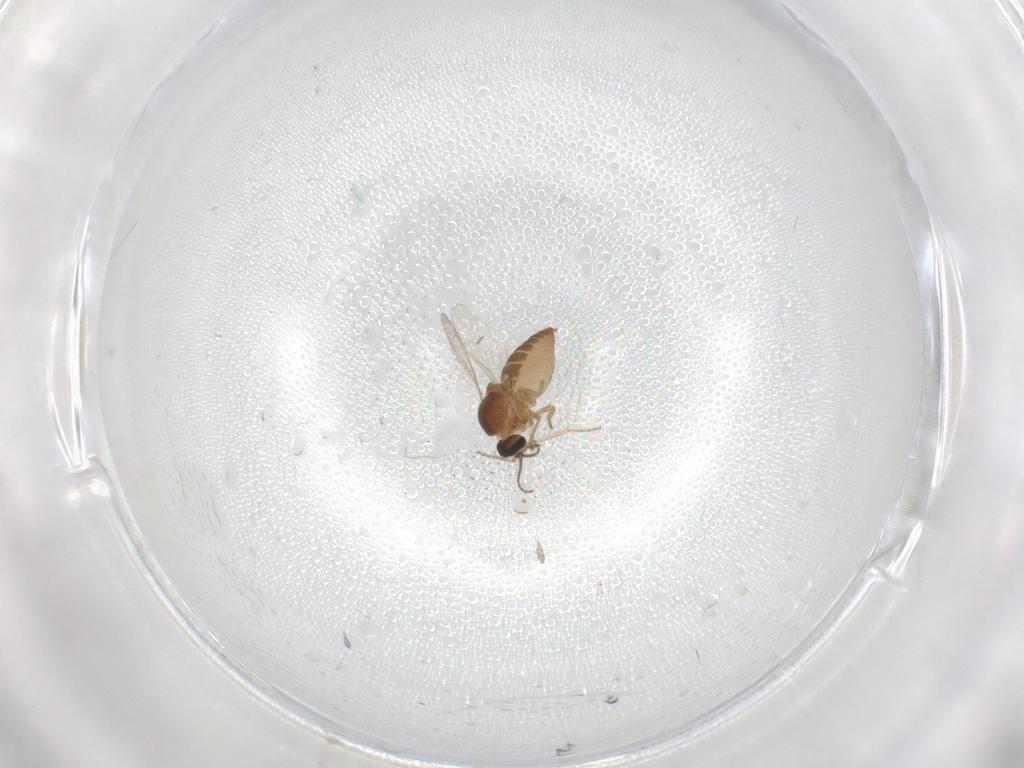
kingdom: Animalia
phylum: Arthropoda
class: Insecta
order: Diptera
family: Ceratopogonidae
